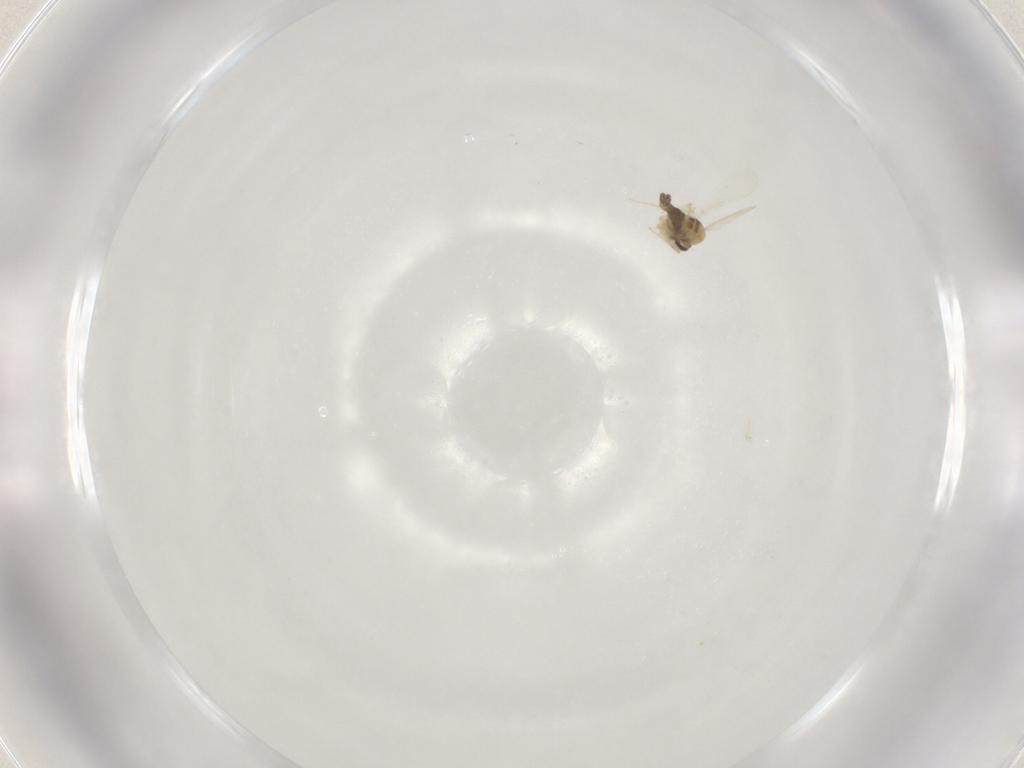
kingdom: Animalia
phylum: Arthropoda
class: Insecta
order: Diptera
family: Chironomidae
